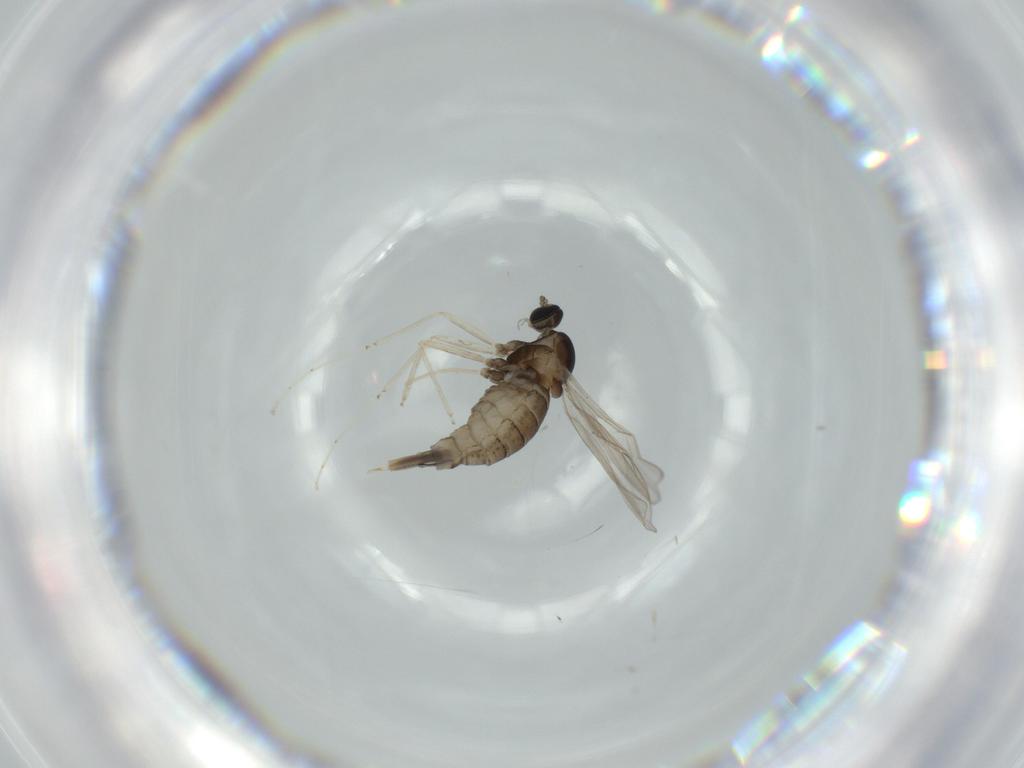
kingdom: Animalia
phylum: Arthropoda
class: Insecta
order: Diptera
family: Cecidomyiidae
